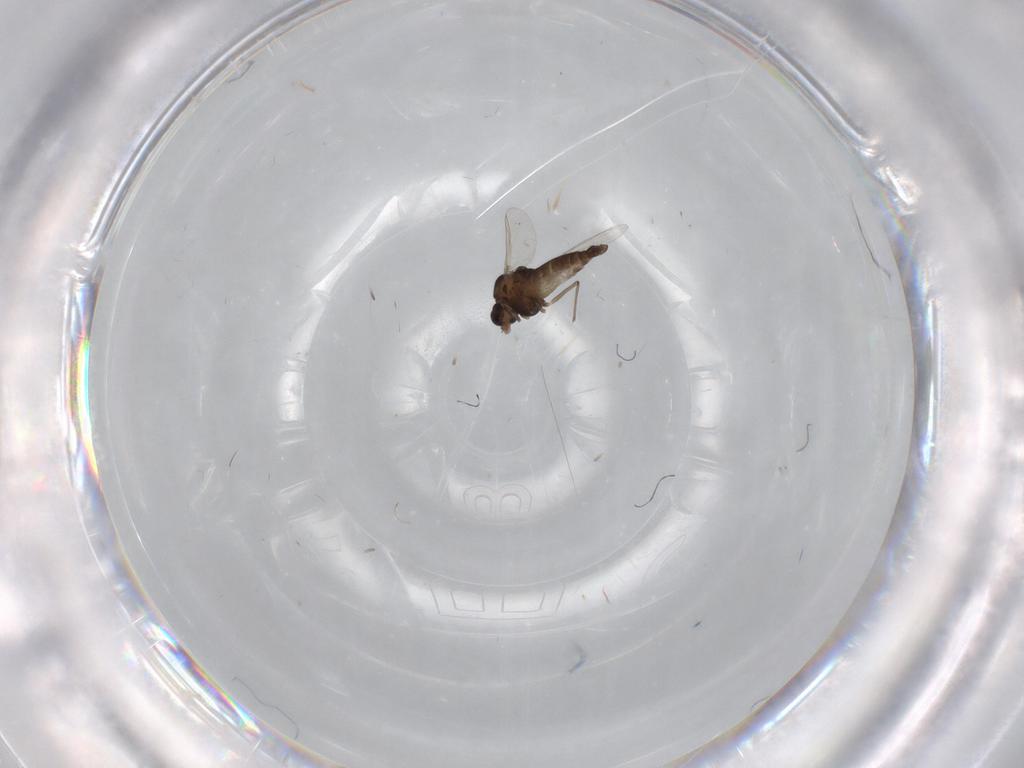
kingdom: Animalia
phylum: Arthropoda
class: Insecta
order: Diptera
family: Chironomidae
